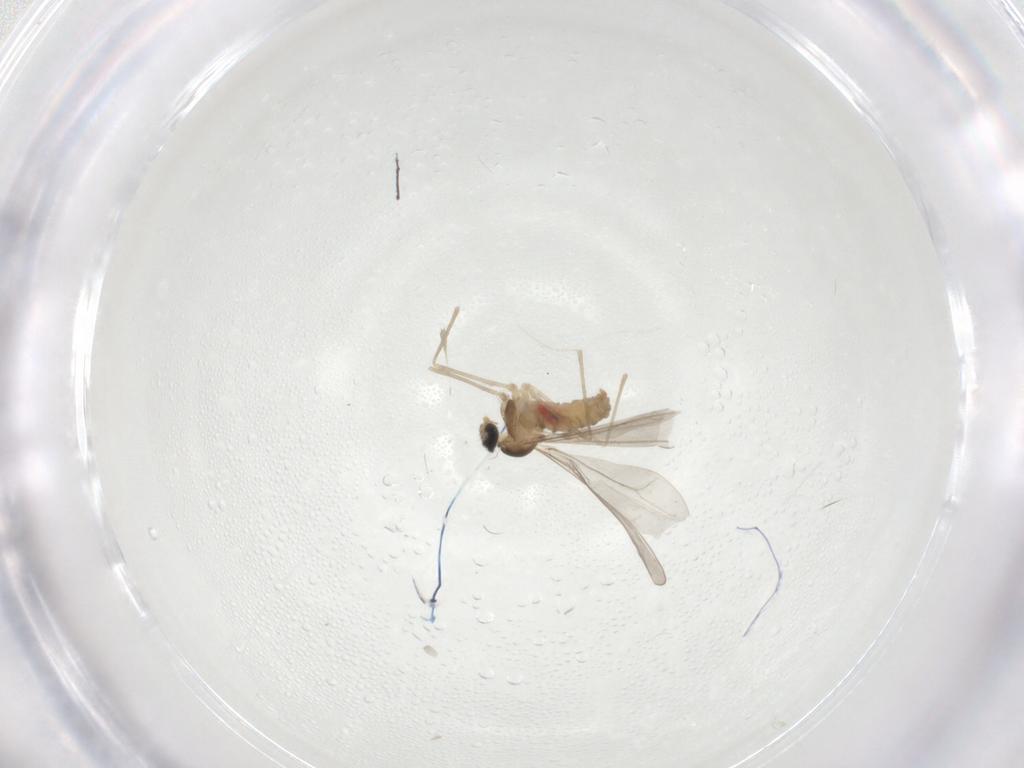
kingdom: Animalia
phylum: Arthropoda
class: Insecta
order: Diptera
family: Cecidomyiidae
